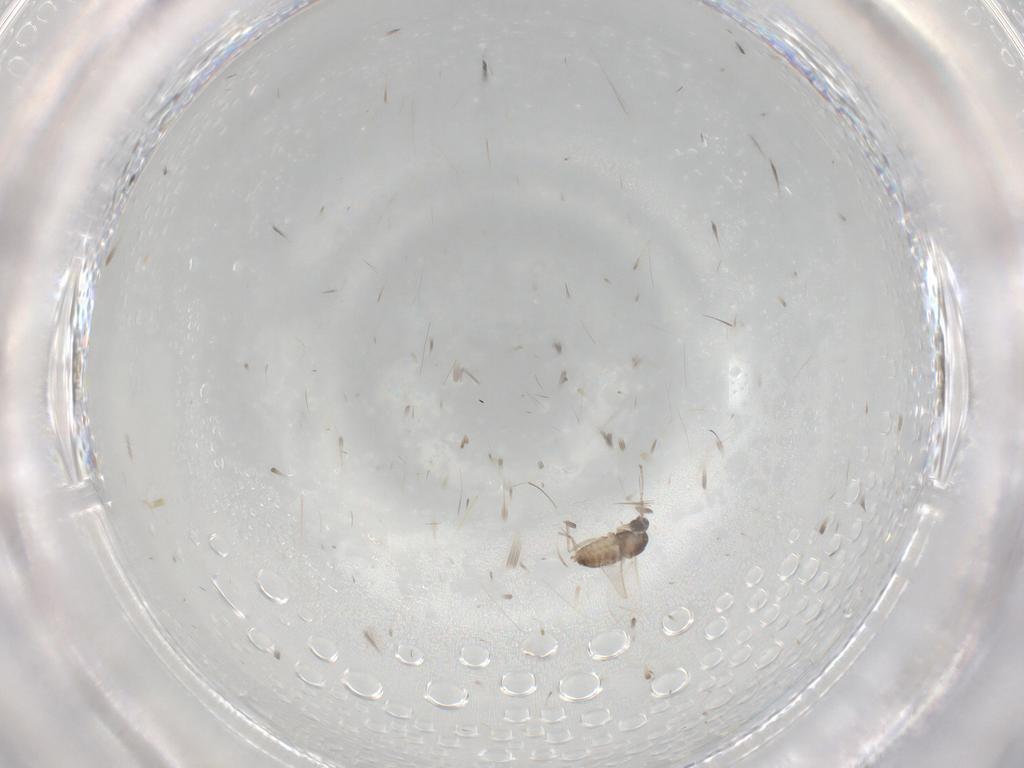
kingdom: Animalia
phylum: Arthropoda
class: Insecta
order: Diptera
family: Cecidomyiidae
